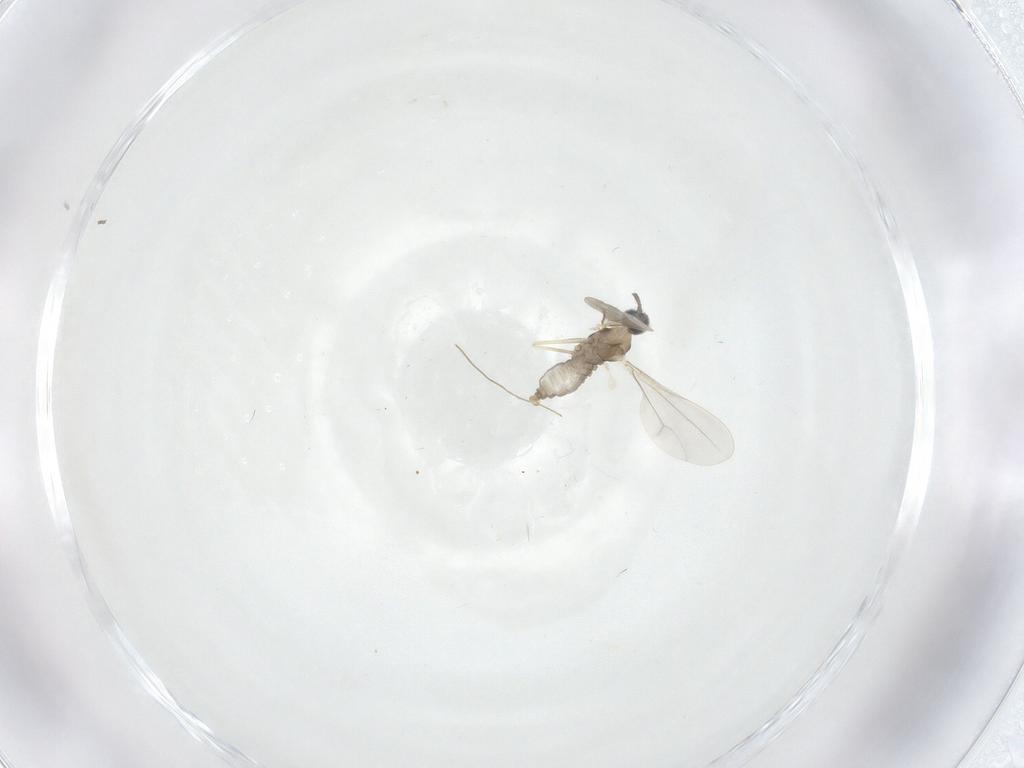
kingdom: Animalia
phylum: Arthropoda
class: Insecta
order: Diptera
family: Cecidomyiidae
